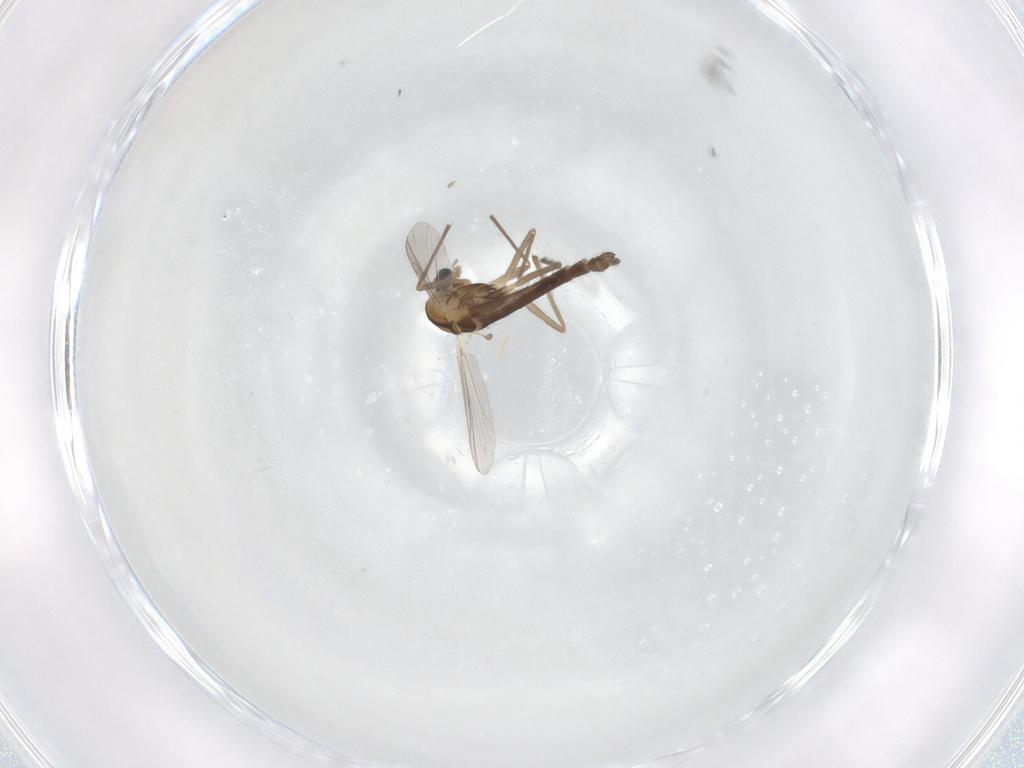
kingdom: Animalia
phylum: Arthropoda
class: Insecta
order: Diptera
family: Chironomidae
